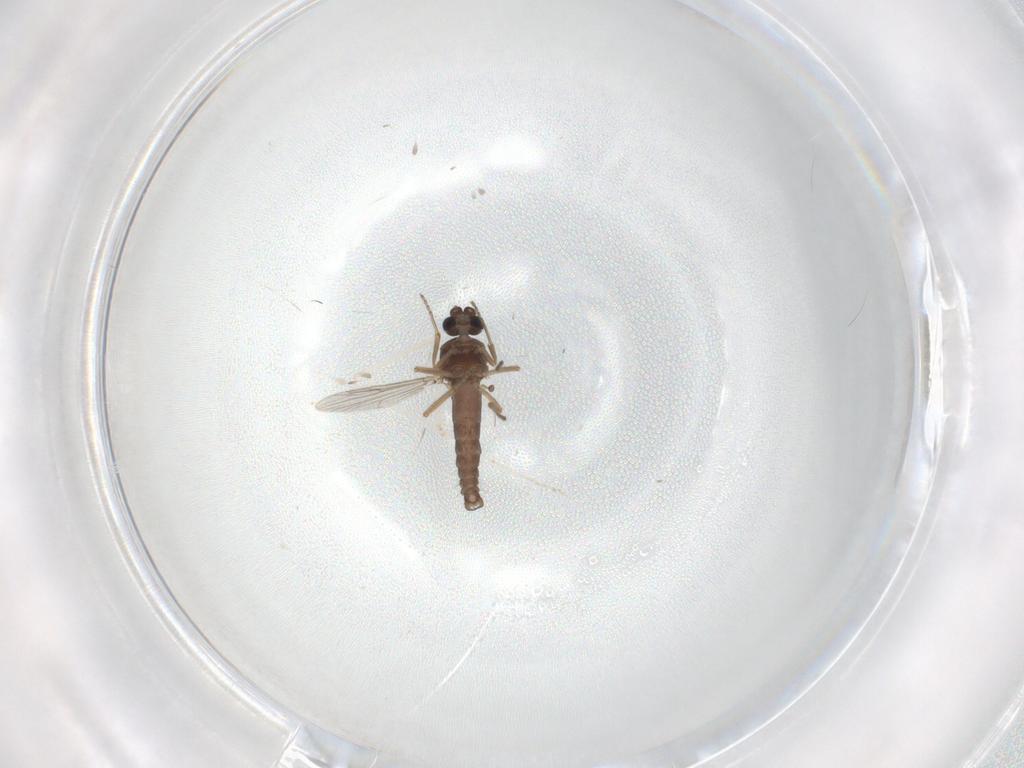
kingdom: Animalia
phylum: Arthropoda
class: Insecta
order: Diptera
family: Ceratopogonidae
